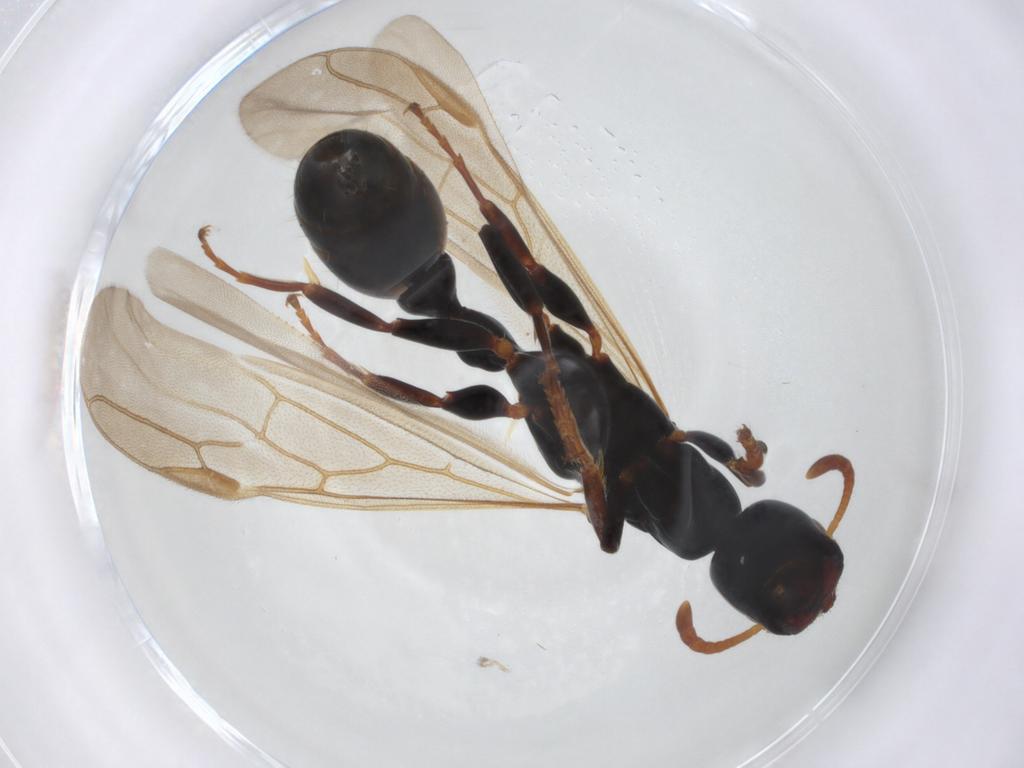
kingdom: Animalia
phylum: Arthropoda
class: Insecta
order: Hymenoptera
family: Formicidae
